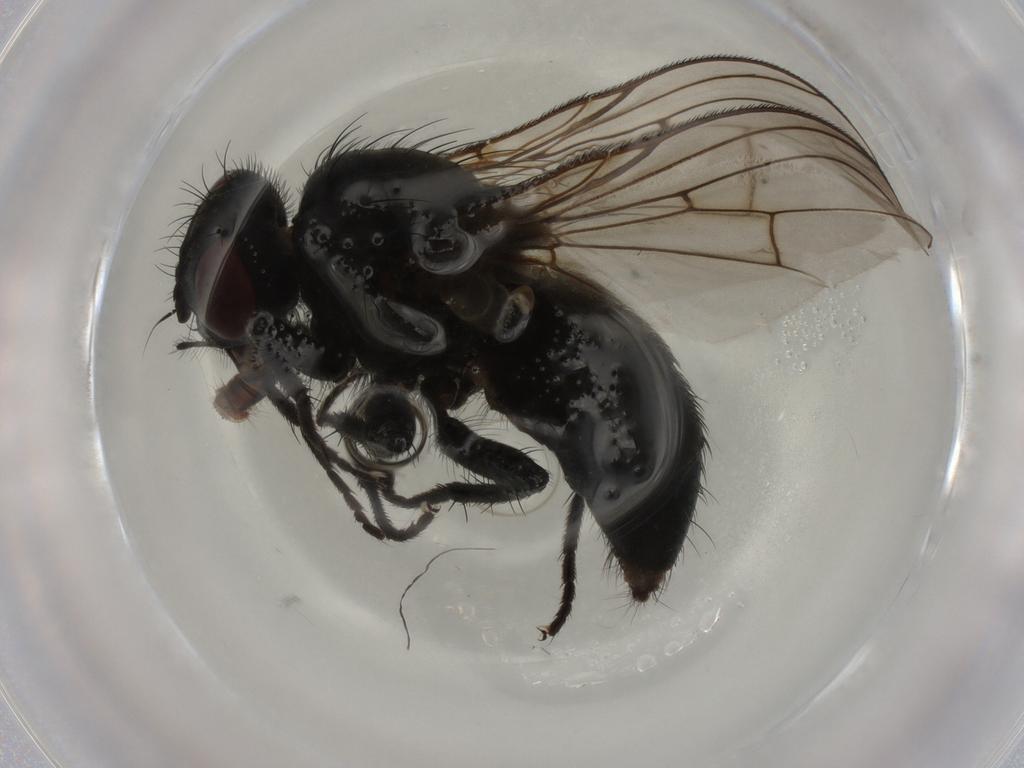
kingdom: Animalia
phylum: Arthropoda
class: Insecta
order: Diptera
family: Muscidae
